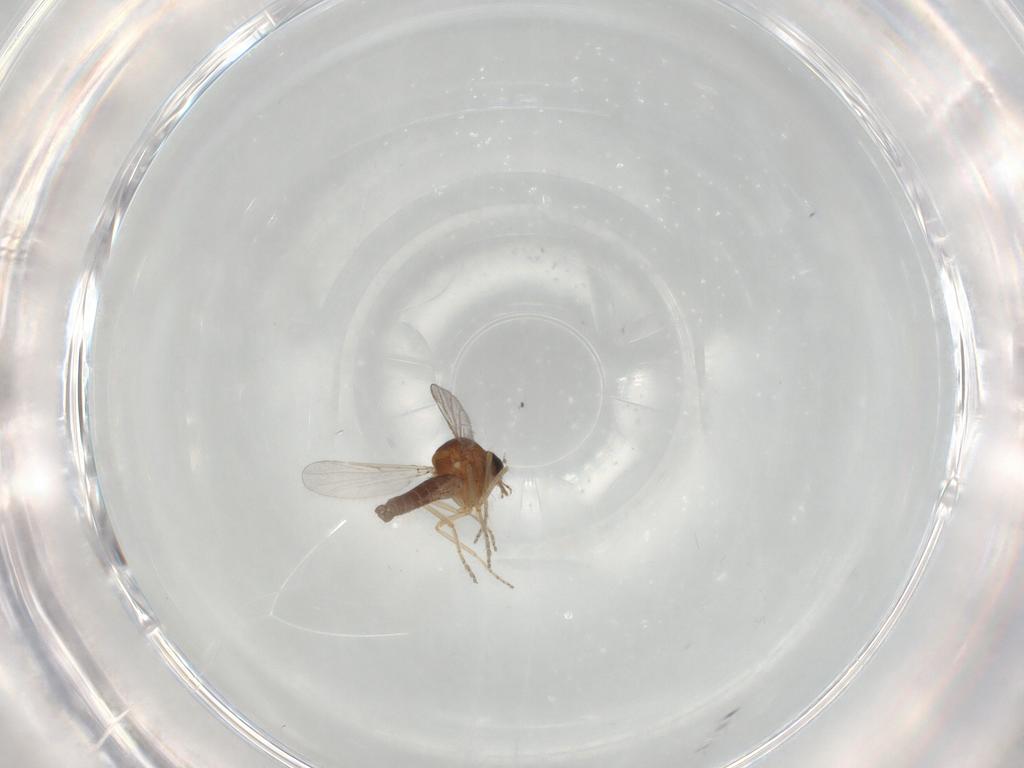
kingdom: Animalia
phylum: Arthropoda
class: Insecta
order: Diptera
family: Ceratopogonidae
